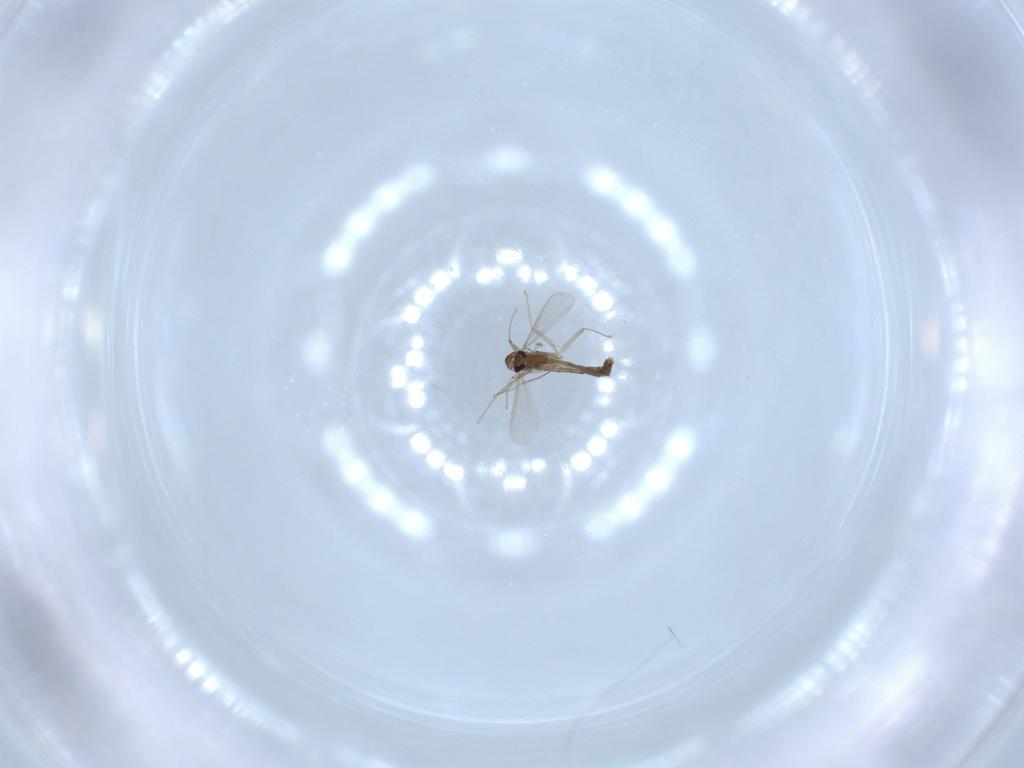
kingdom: Animalia
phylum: Arthropoda
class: Insecta
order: Diptera
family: Chironomidae
